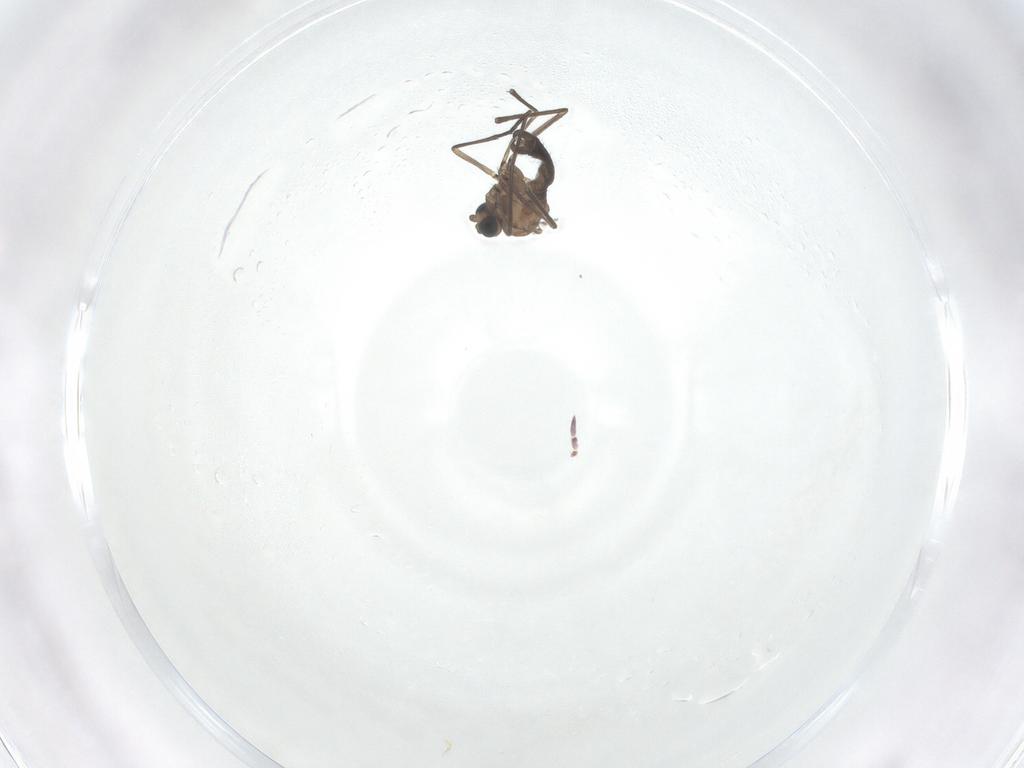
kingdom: Animalia
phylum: Arthropoda
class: Insecta
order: Diptera
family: Sciaridae
